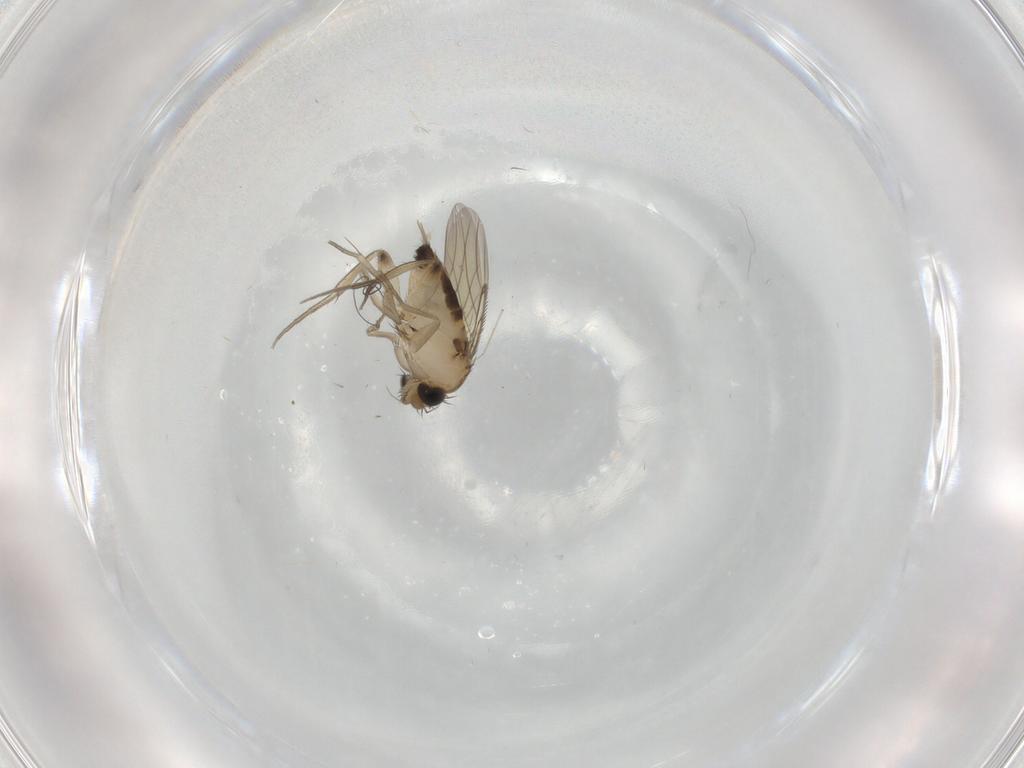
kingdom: Animalia
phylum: Arthropoda
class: Insecta
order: Diptera
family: Phoridae
